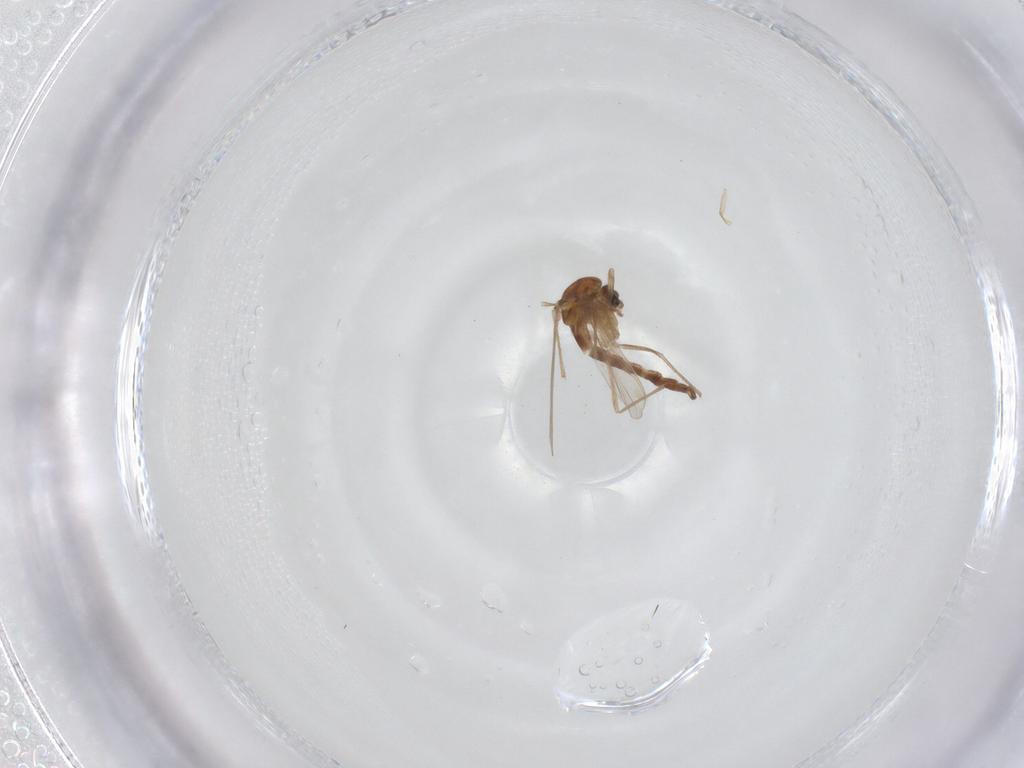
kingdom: Animalia
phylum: Arthropoda
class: Insecta
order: Diptera
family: Chironomidae
